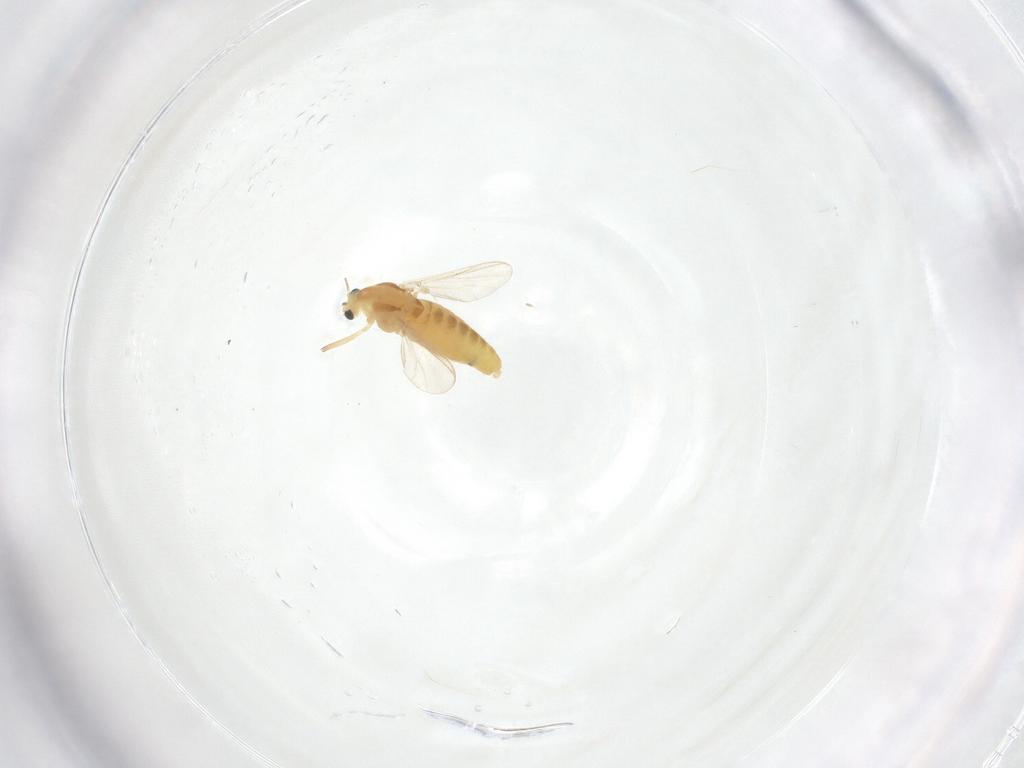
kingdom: Animalia
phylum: Arthropoda
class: Insecta
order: Diptera
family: Chironomidae
